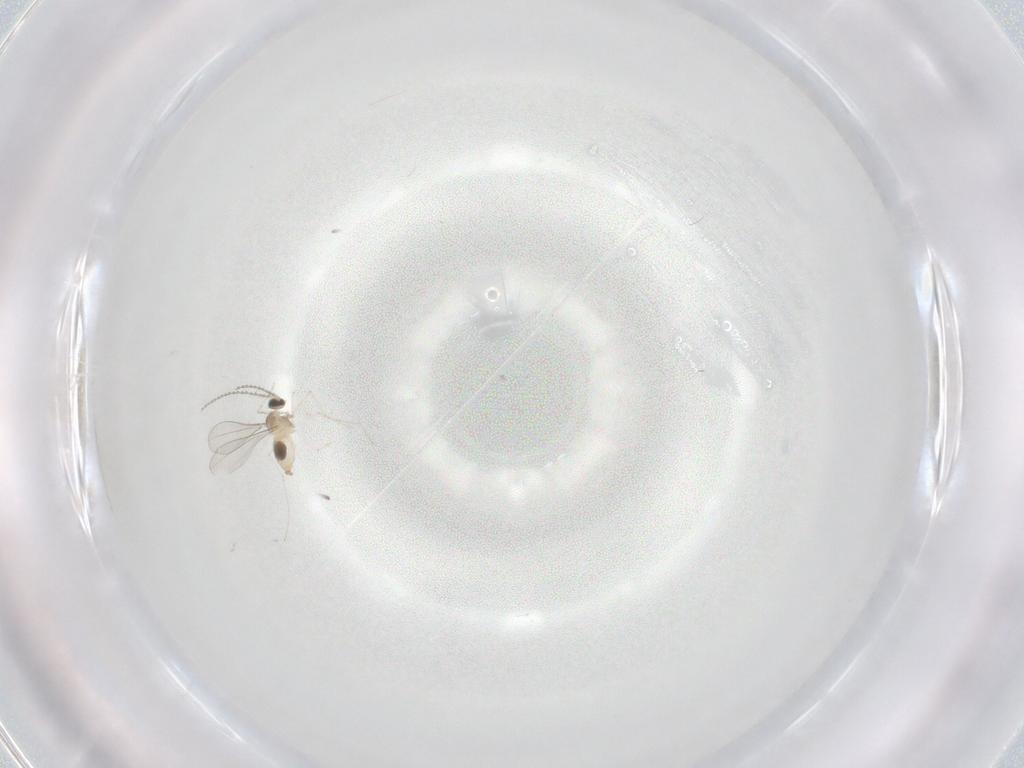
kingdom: Animalia
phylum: Arthropoda
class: Insecta
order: Diptera
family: Cecidomyiidae
